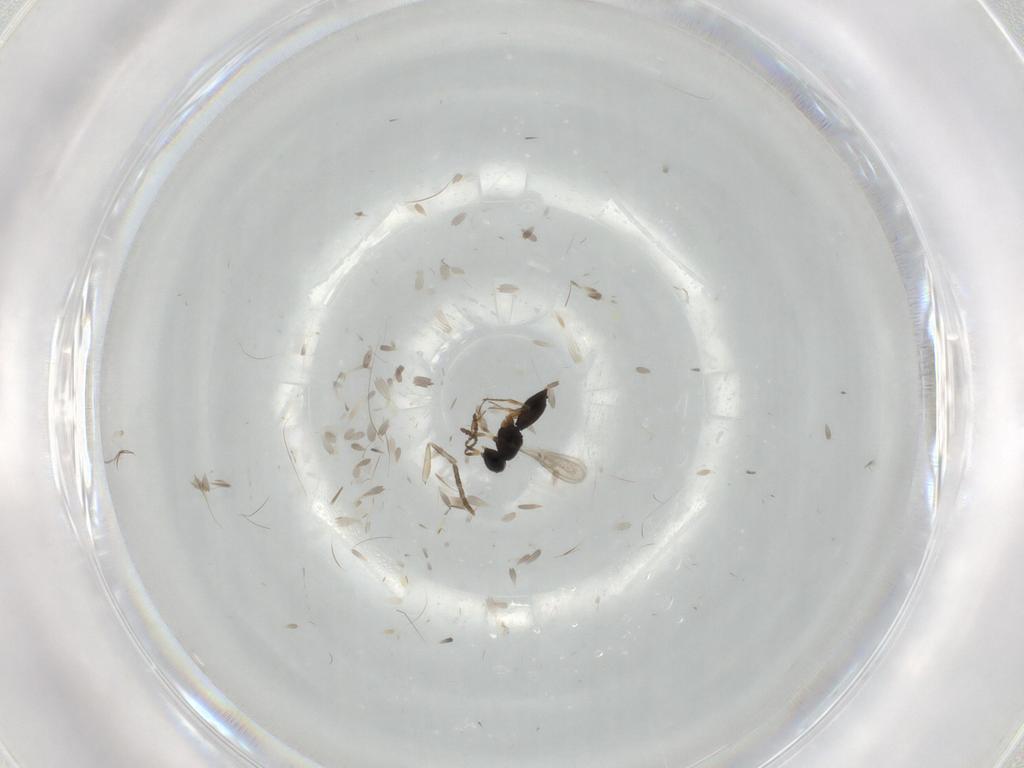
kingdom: Animalia
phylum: Arthropoda
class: Insecta
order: Hymenoptera
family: Scelionidae
